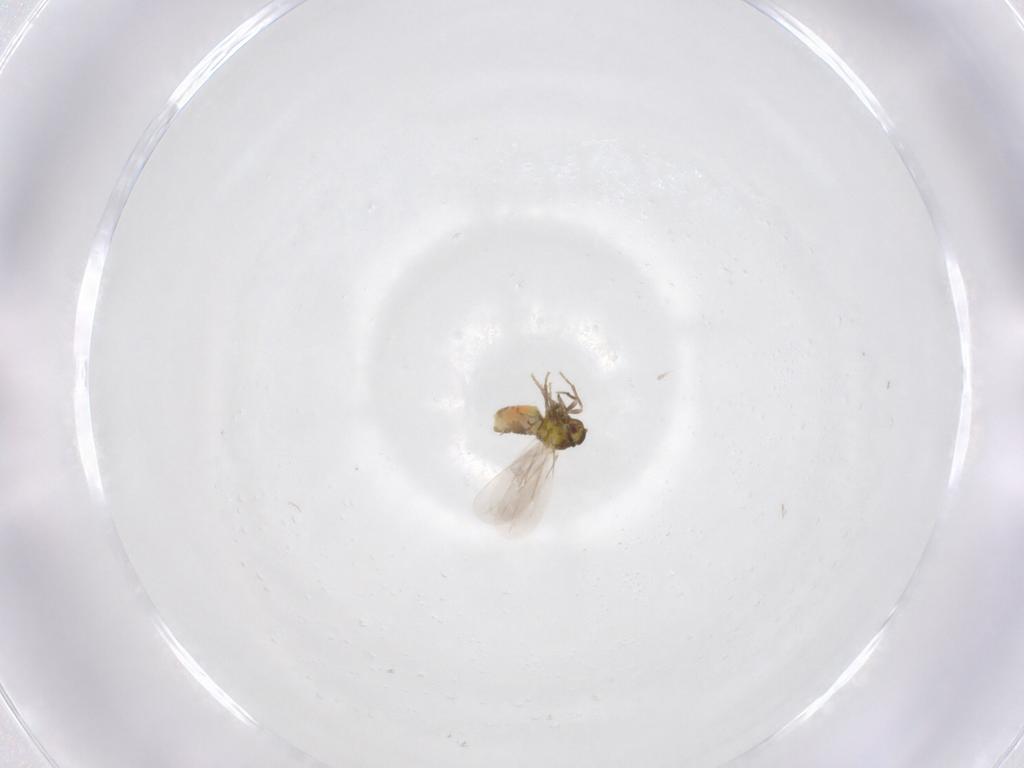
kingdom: Animalia
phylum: Arthropoda
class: Insecta
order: Hemiptera
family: Aleyrodidae
